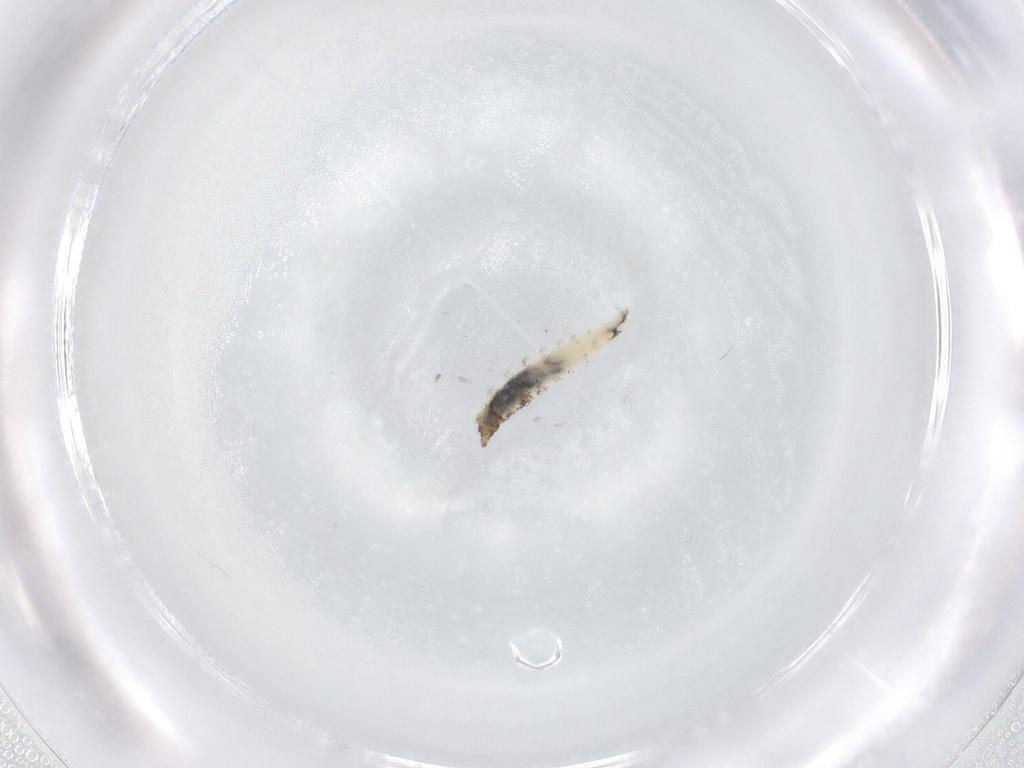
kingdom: Animalia
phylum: Arthropoda
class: Insecta
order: Diptera
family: Drosophilidae
